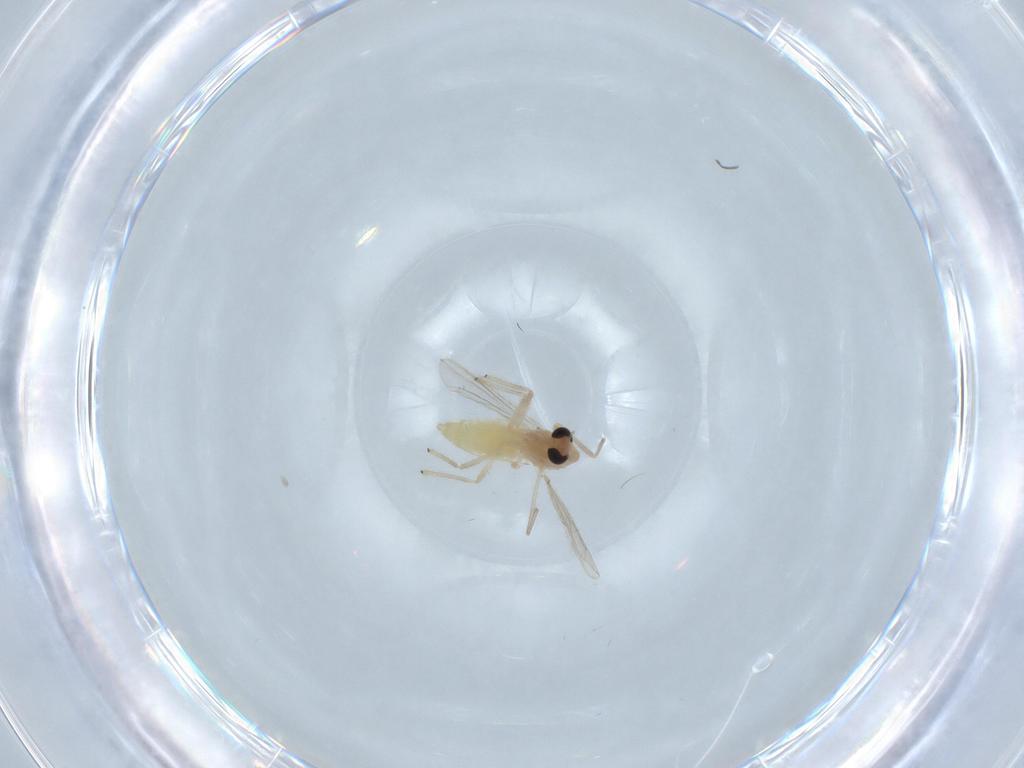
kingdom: Animalia
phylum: Arthropoda
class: Insecta
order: Diptera
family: Chironomidae
